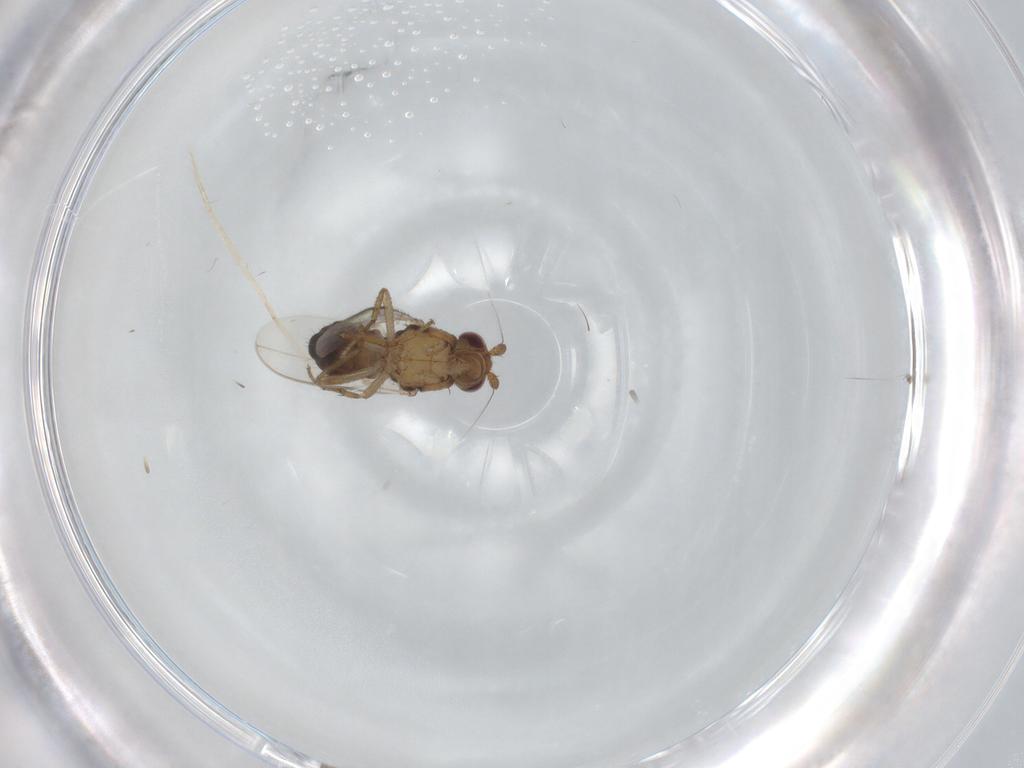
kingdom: Animalia
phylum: Arthropoda
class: Insecta
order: Diptera
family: Sphaeroceridae
